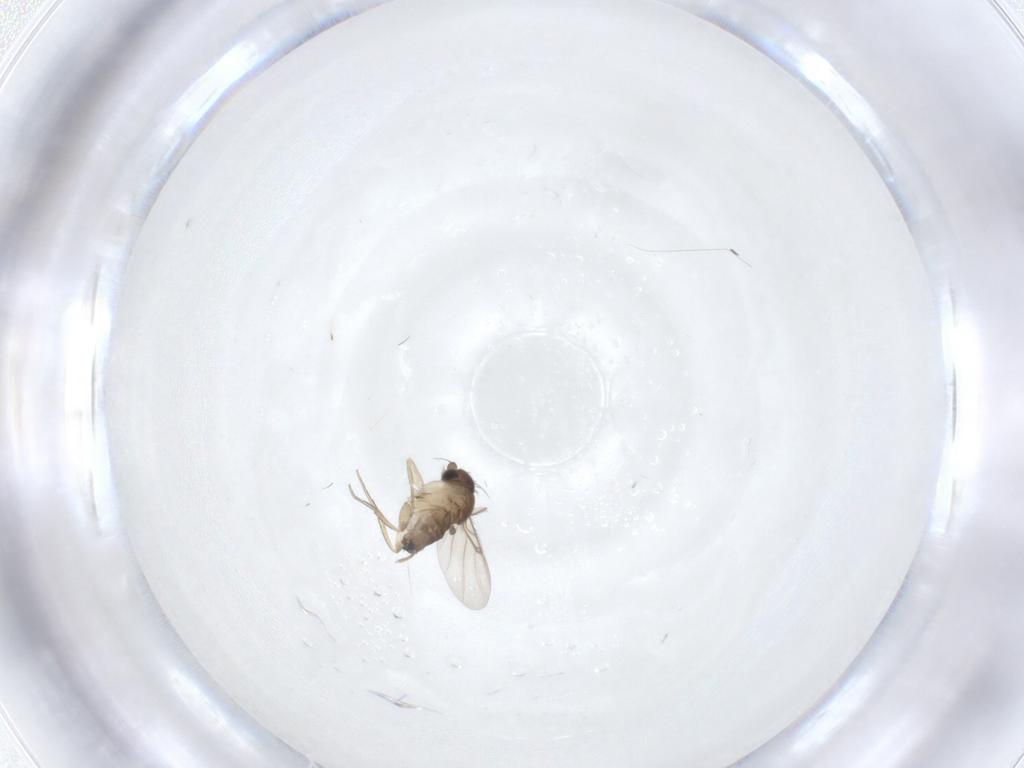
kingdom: Animalia
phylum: Arthropoda
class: Insecta
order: Diptera
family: Phoridae
